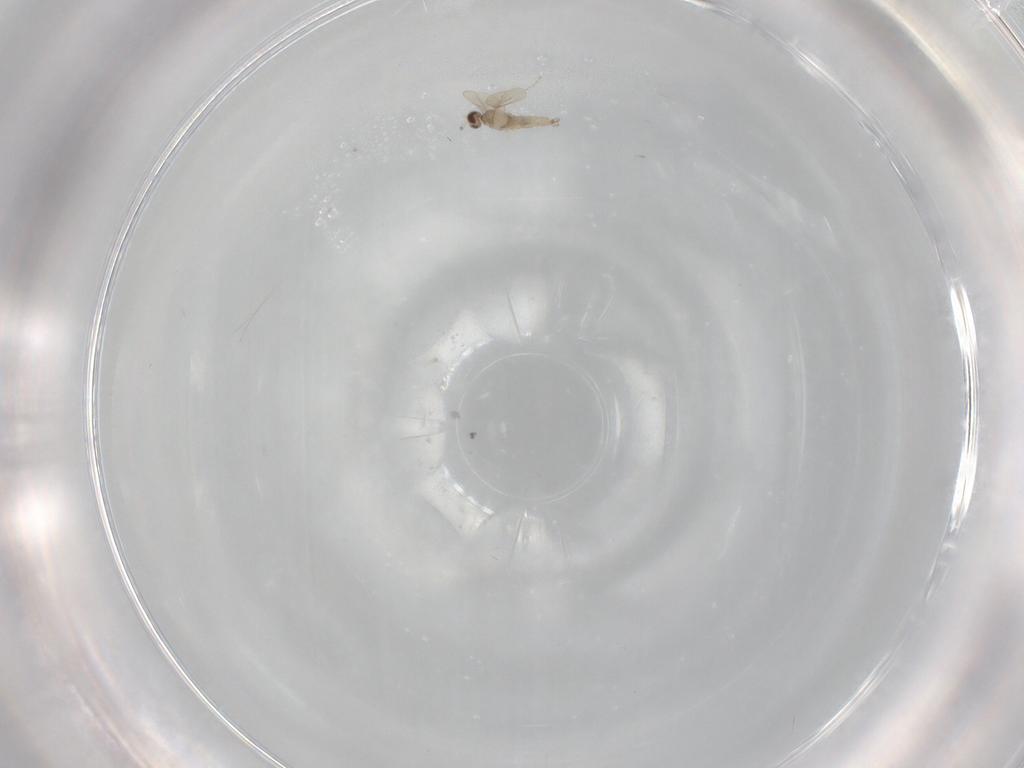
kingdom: Animalia
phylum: Arthropoda
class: Insecta
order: Diptera
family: Cecidomyiidae
